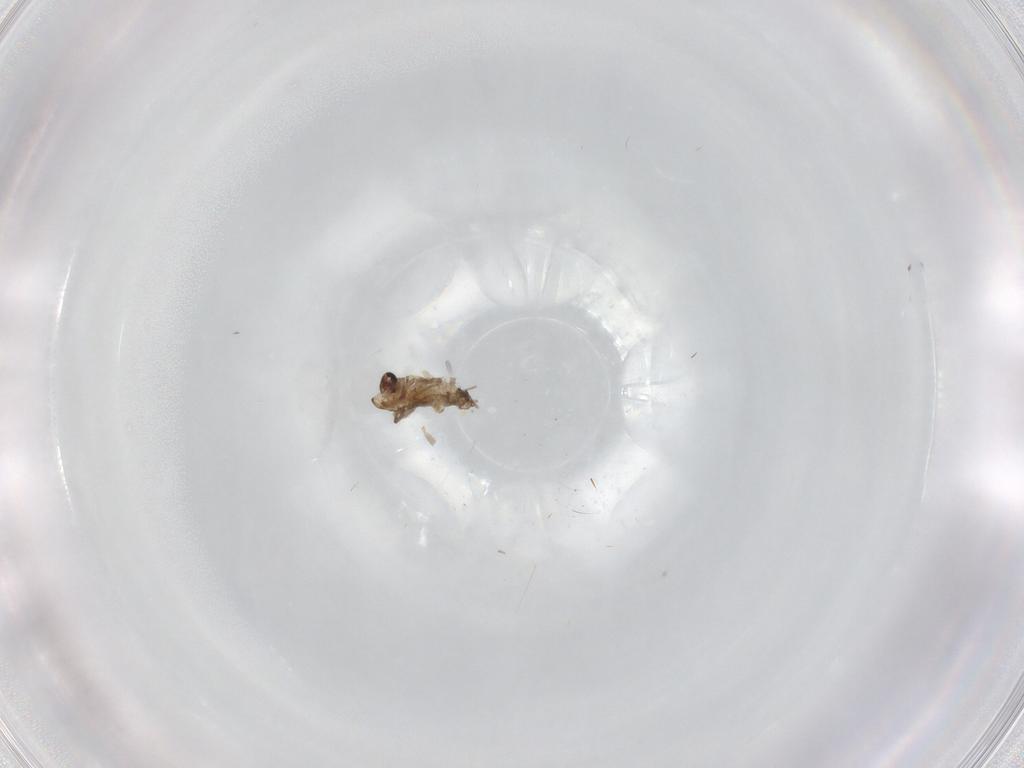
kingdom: Animalia
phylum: Arthropoda
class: Insecta
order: Diptera
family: Chironomidae
